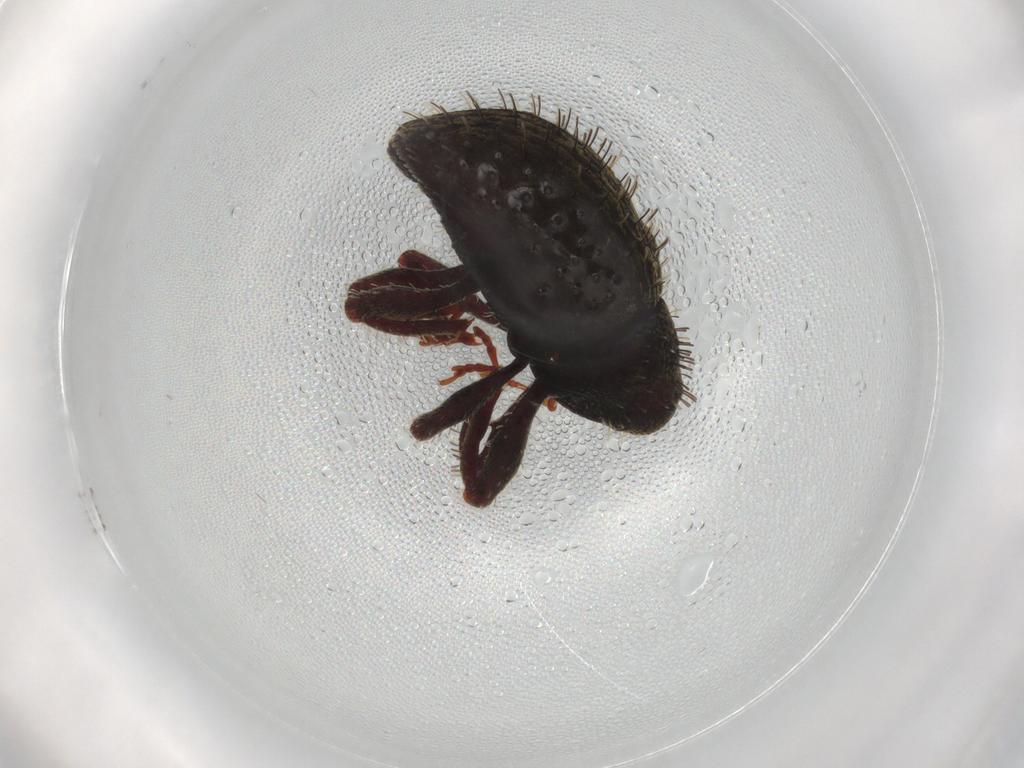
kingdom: Animalia
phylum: Arthropoda
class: Insecta
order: Coleoptera
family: Curculionidae
